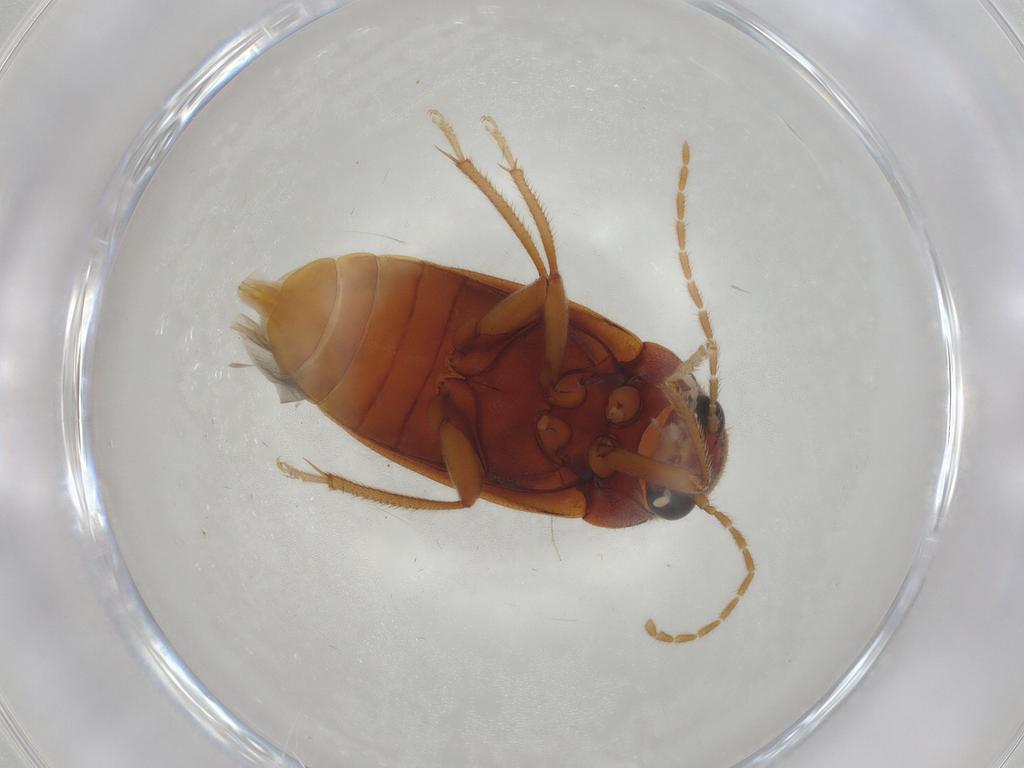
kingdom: Animalia
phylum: Arthropoda
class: Insecta
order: Coleoptera
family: Ptilodactylidae
